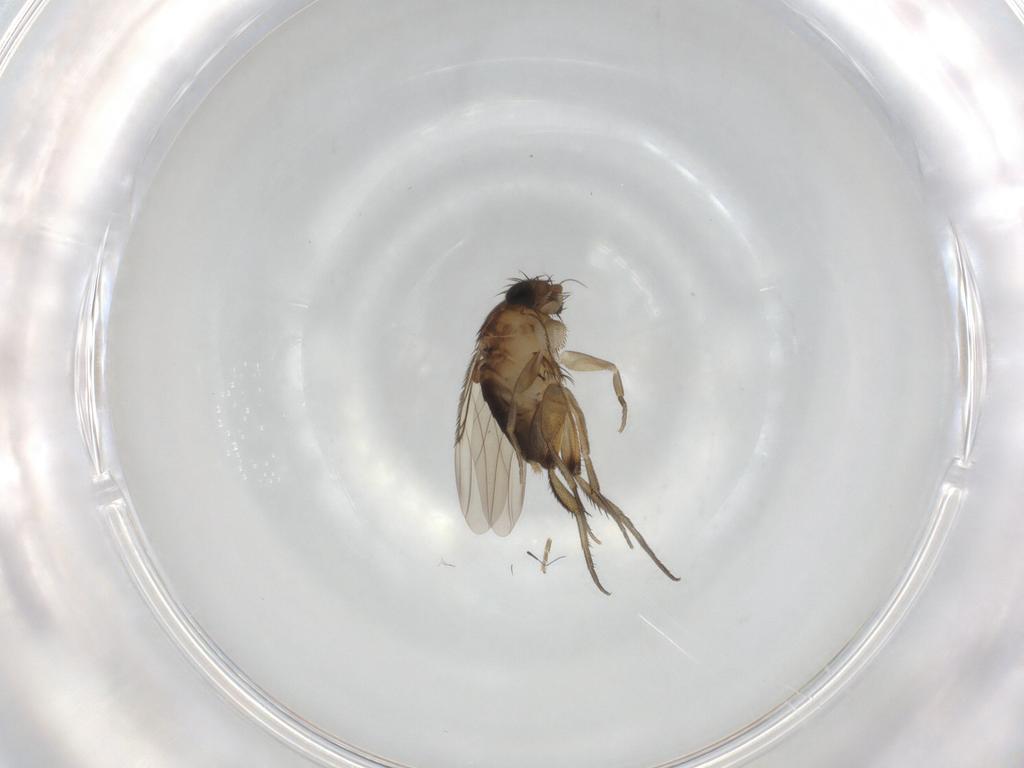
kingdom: Animalia
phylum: Arthropoda
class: Insecta
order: Diptera
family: Phoridae
